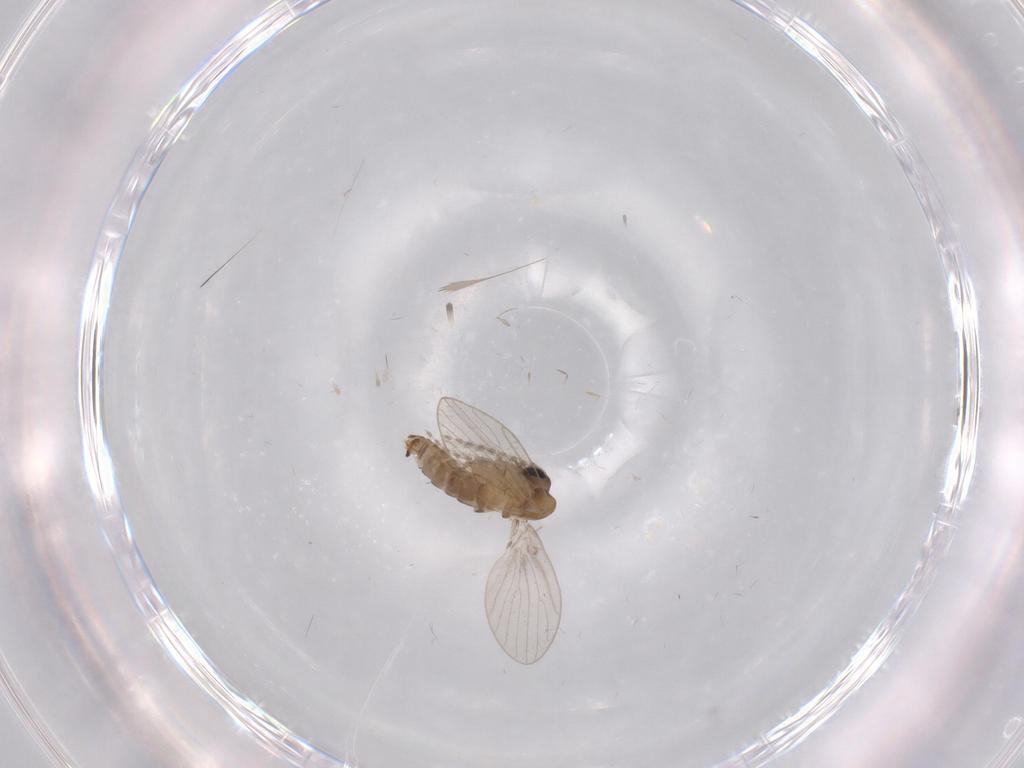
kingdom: Animalia
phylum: Arthropoda
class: Insecta
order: Diptera
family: Psychodidae
